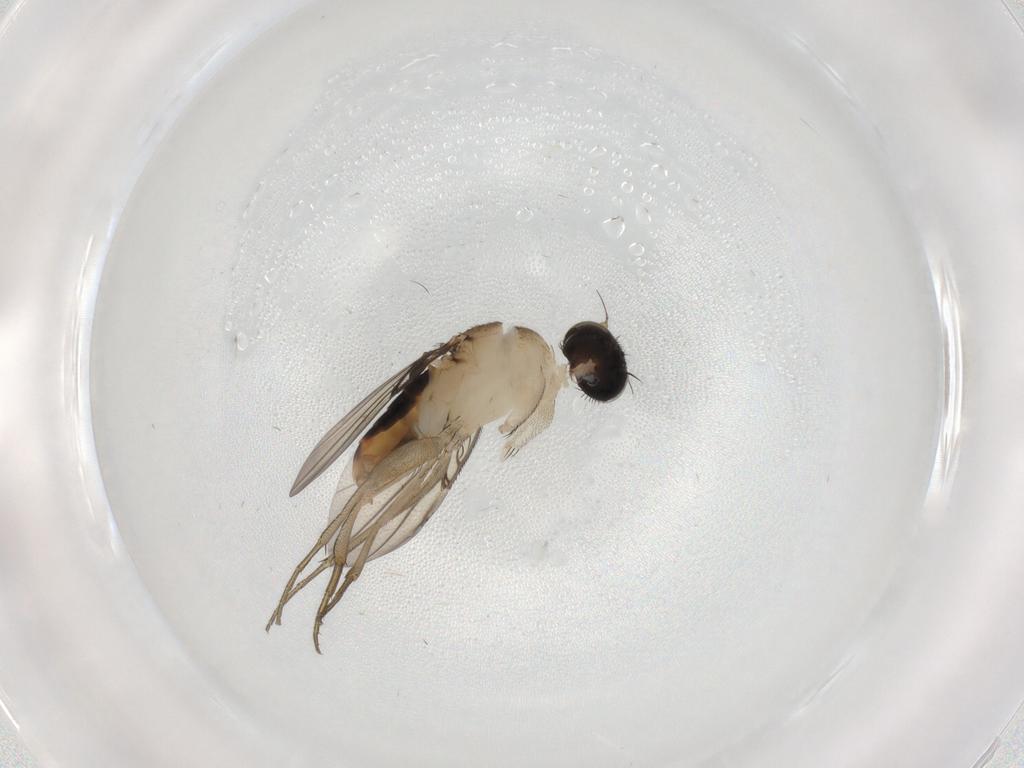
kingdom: Animalia
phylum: Arthropoda
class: Insecta
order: Diptera
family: Phoridae
